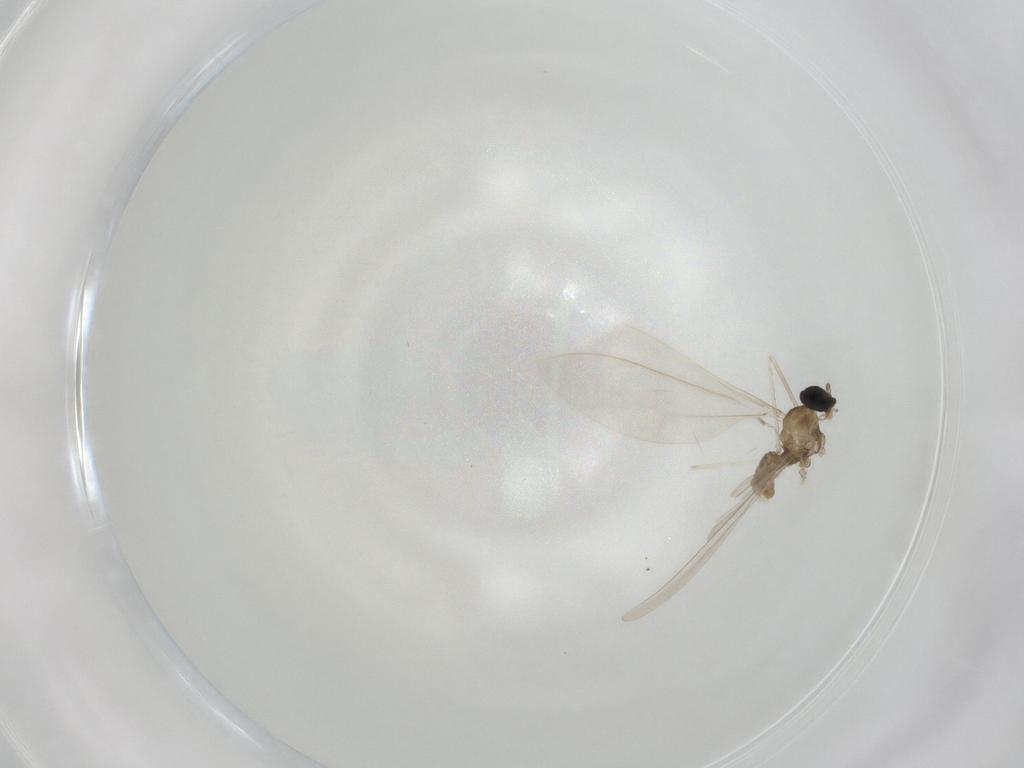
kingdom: Animalia
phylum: Arthropoda
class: Insecta
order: Diptera
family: Cecidomyiidae
